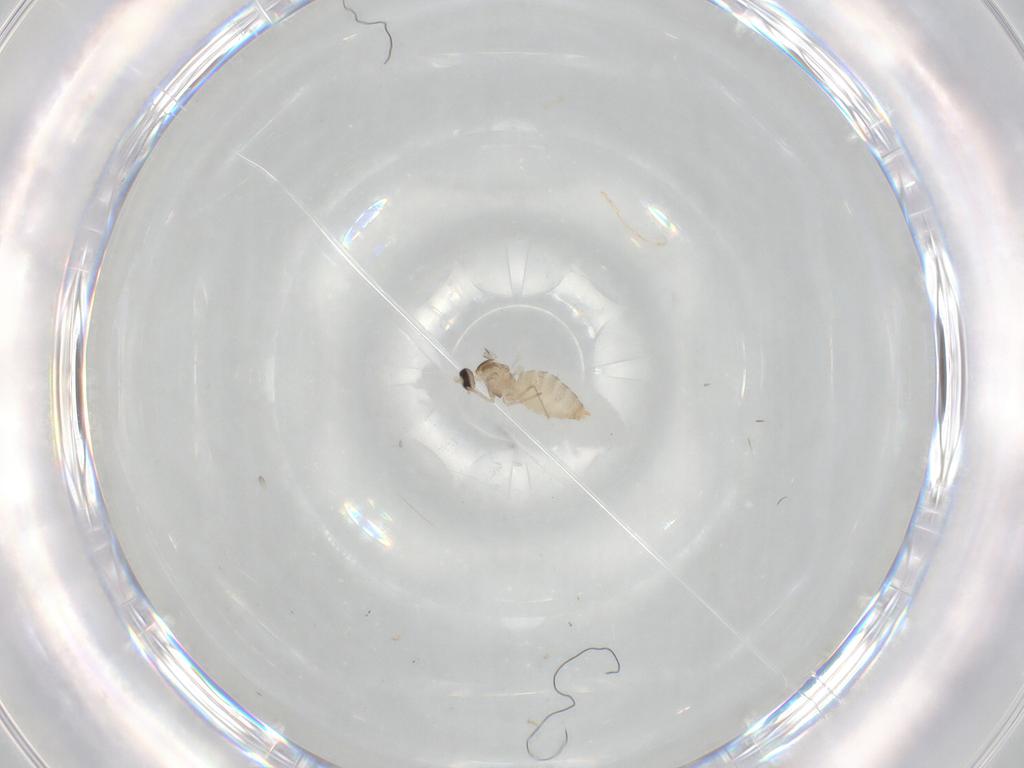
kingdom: Animalia
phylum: Arthropoda
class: Insecta
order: Diptera
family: Cecidomyiidae
